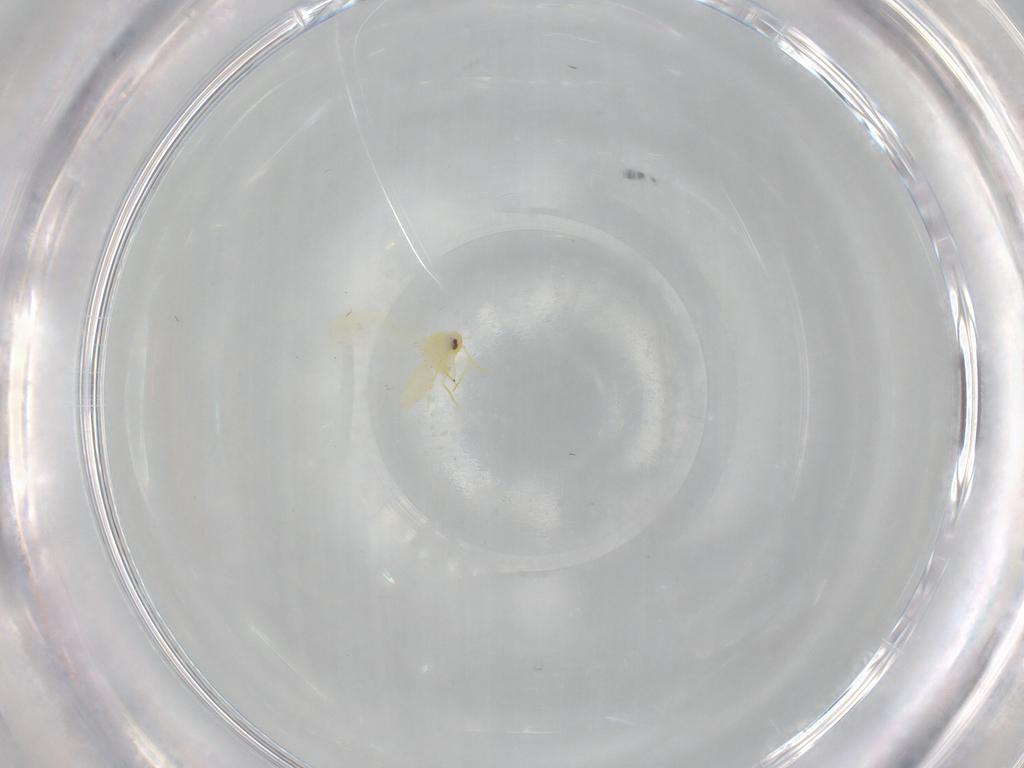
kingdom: Animalia
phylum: Arthropoda
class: Insecta
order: Hemiptera
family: Aleyrodidae
